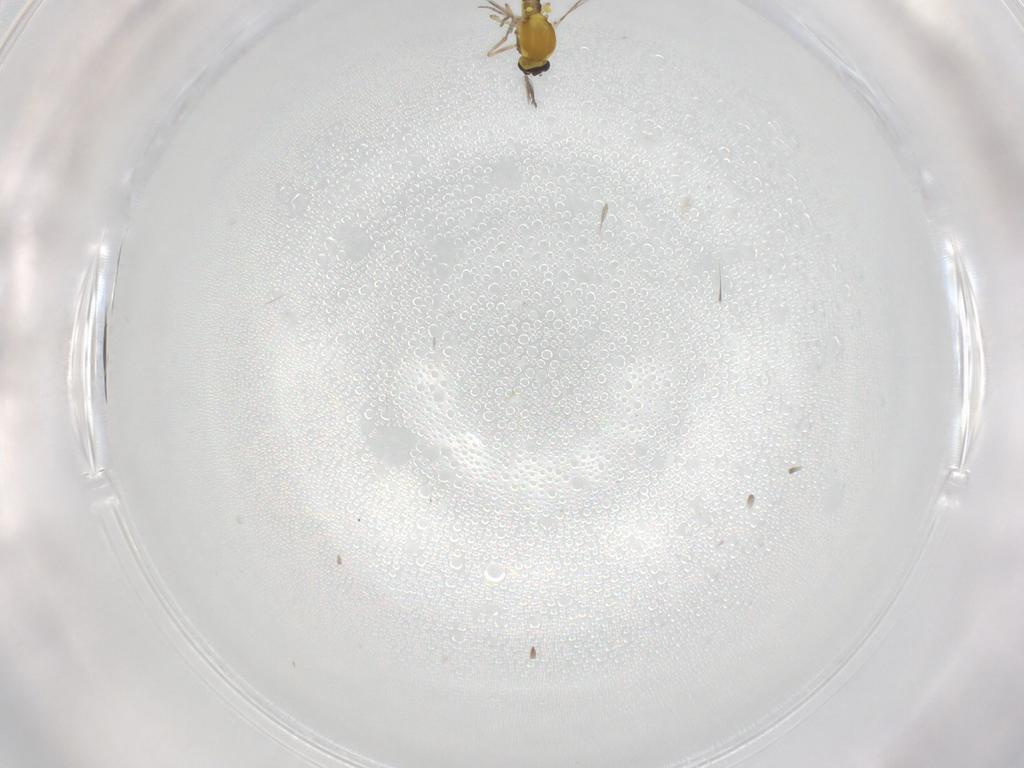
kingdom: Animalia
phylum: Arthropoda
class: Insecta
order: Diptera
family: Ceratopogonidae
